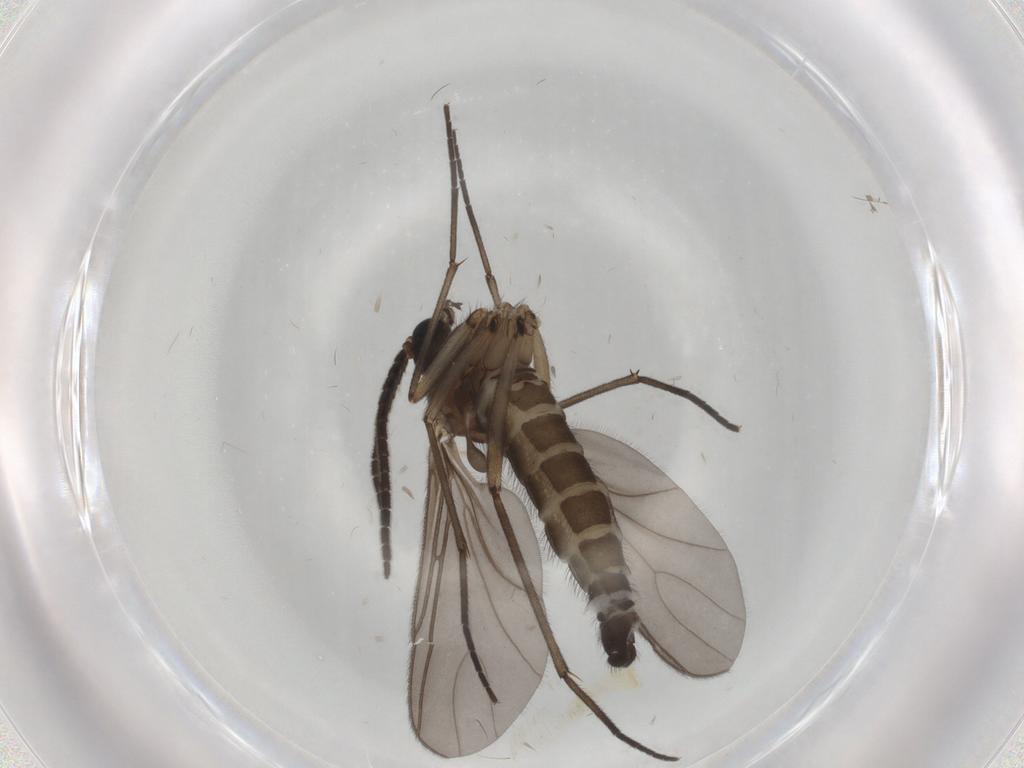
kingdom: Animalia
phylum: Arthropoda
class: Insecta
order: Diptera
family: Sciaridae
